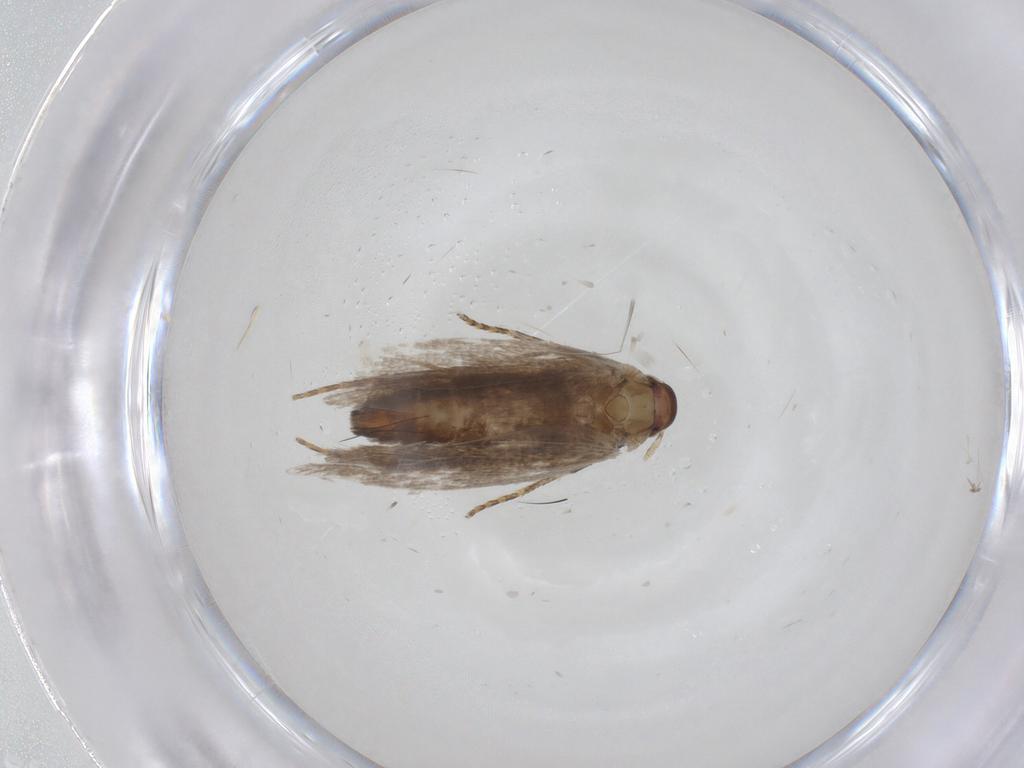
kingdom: Animalia
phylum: Arthropoda
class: Insecta
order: Lepidoptera
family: Gelechiidae
